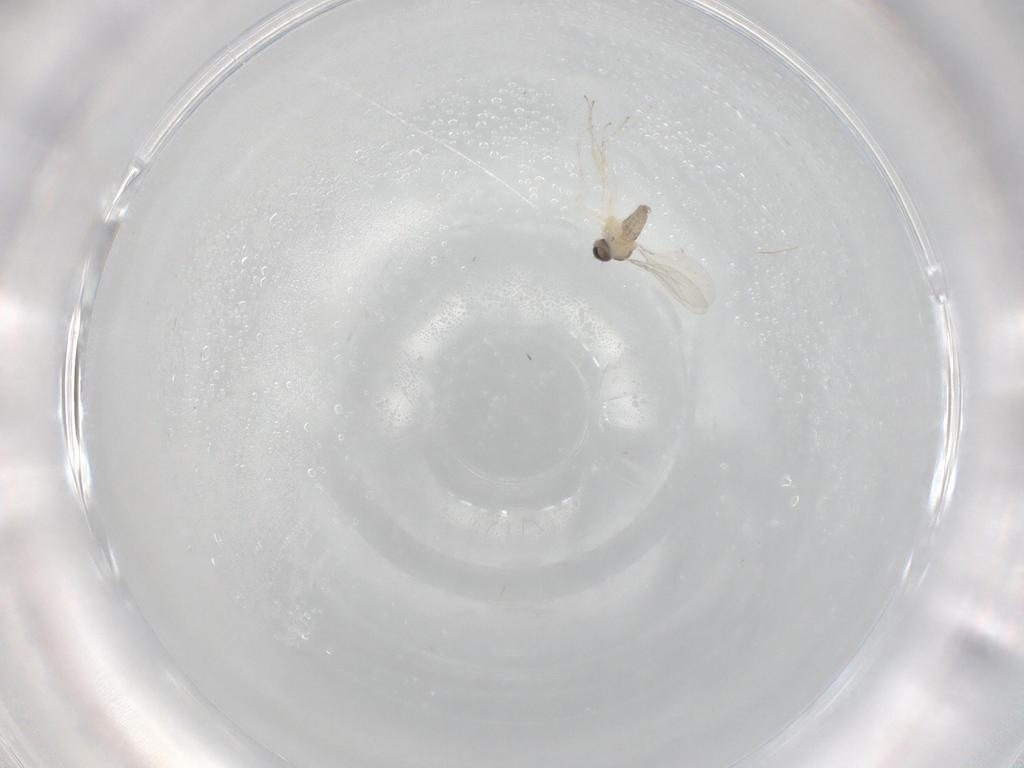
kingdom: Animalia
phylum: Arthropoda
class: Insecta
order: Diptera
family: Cecidomyiidae
